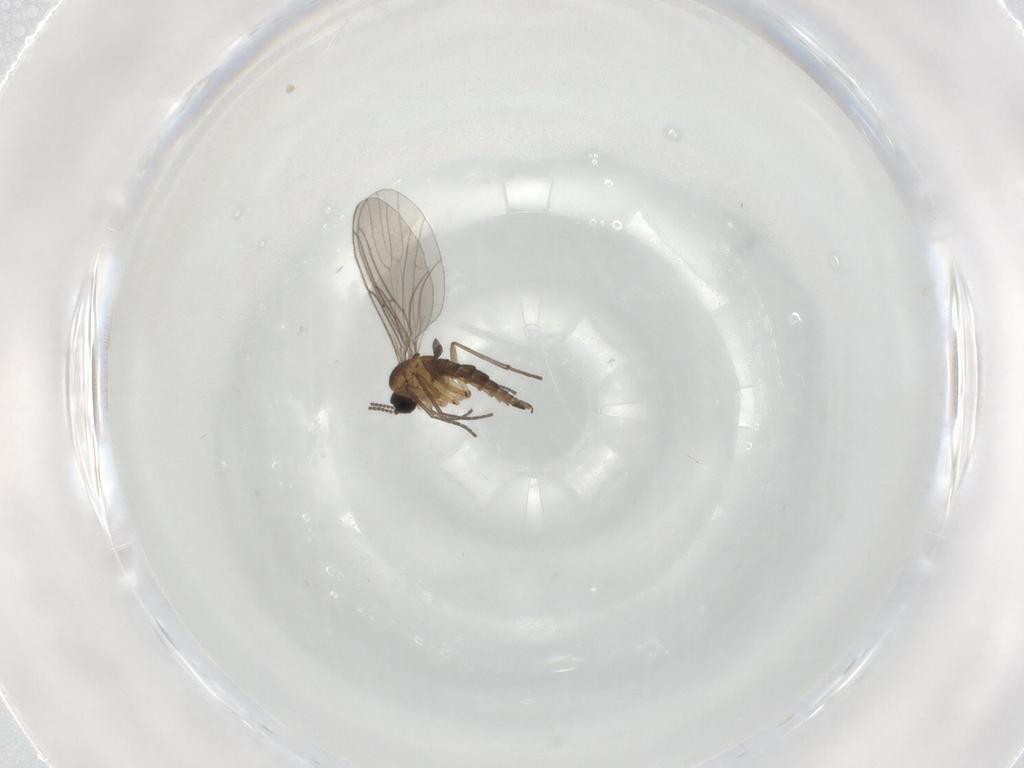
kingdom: Animalia
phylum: Arthropoda
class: Insecta
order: Diptera
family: Sciaridae
